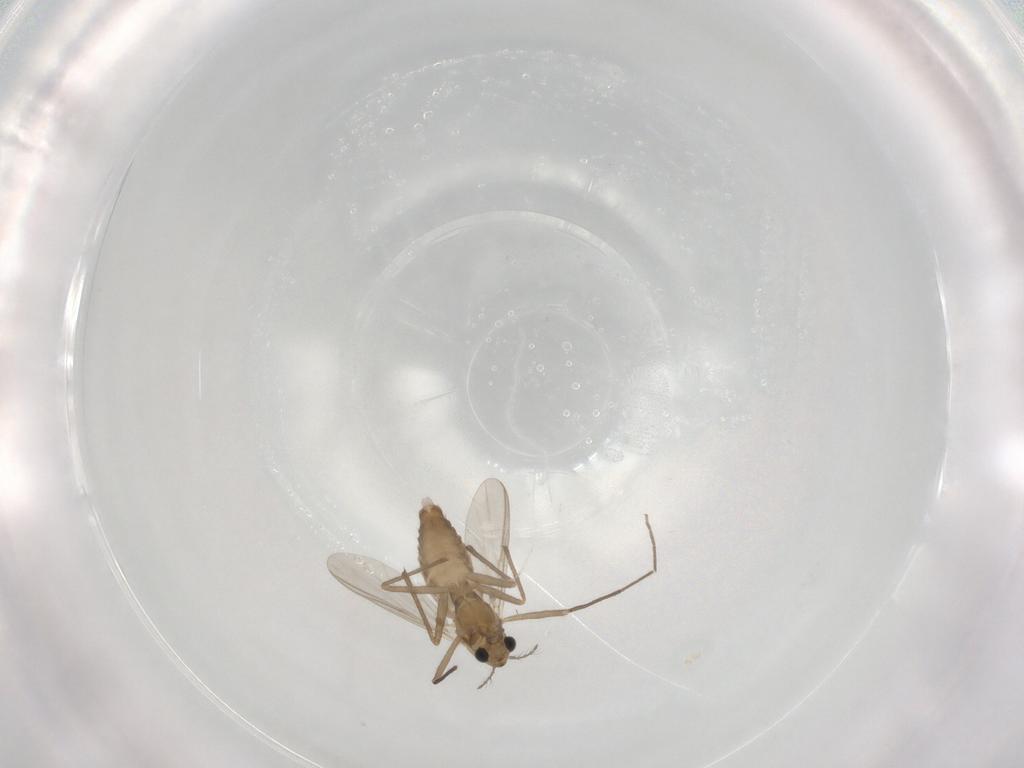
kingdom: Animalia
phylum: Arthropoda
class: Insecta
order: Diptera
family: Chironomidae
